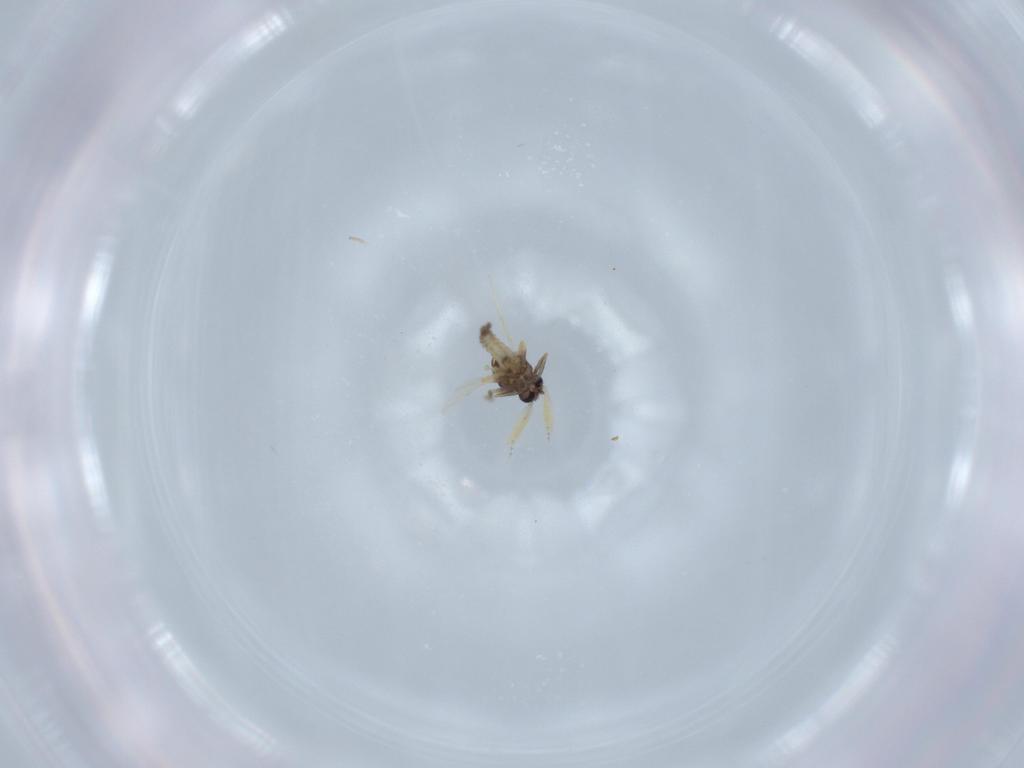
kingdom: Animalia
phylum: Arthropoda
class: Insecta
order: Diptera
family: Ceratopogonidae
